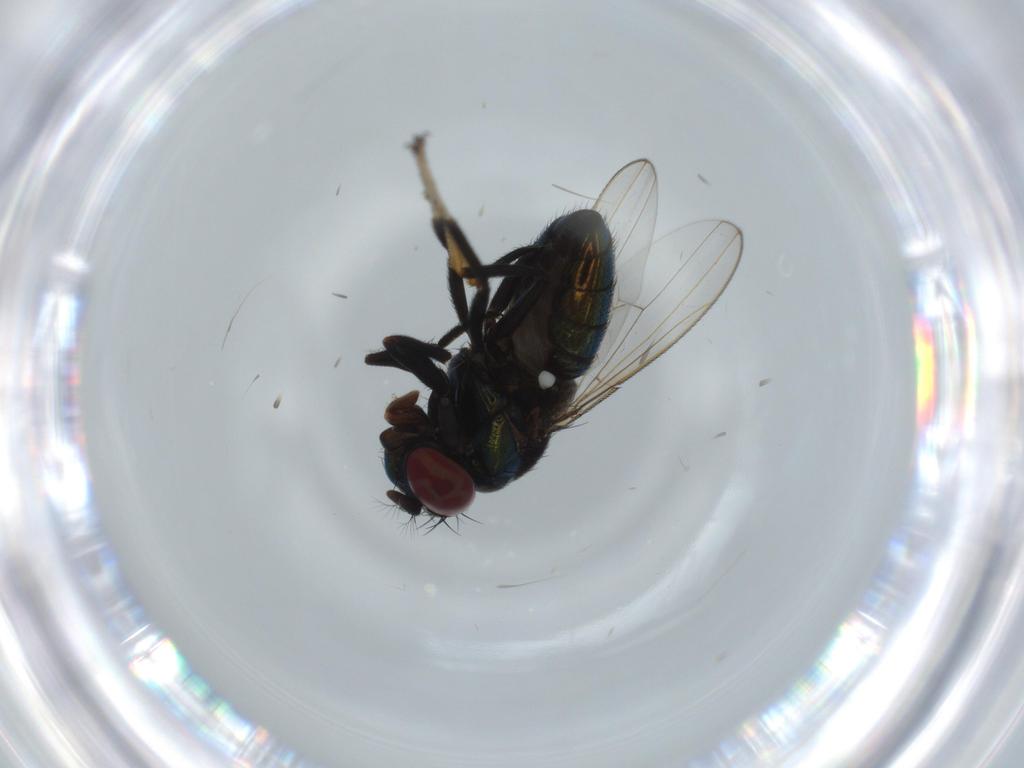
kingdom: Animalia
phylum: Arthropoda
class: Insecta
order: Diptera
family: Ephydridae
